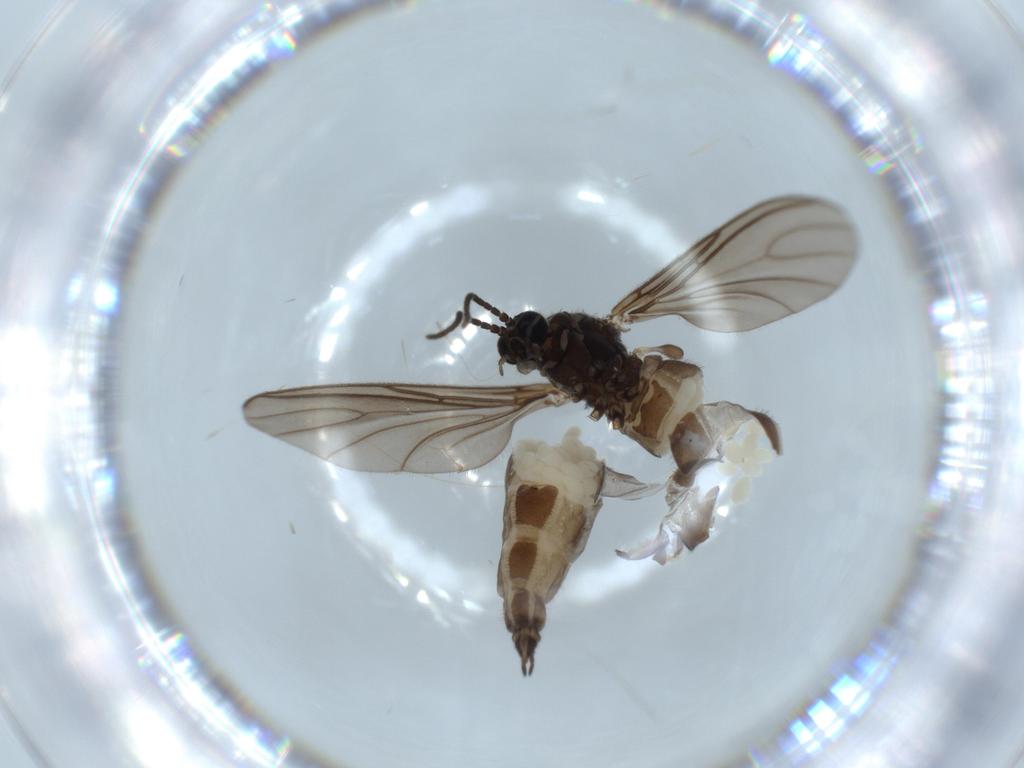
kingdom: Animalia
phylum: Arthropoda
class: Insecta
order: Diptera
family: Sciaridae
